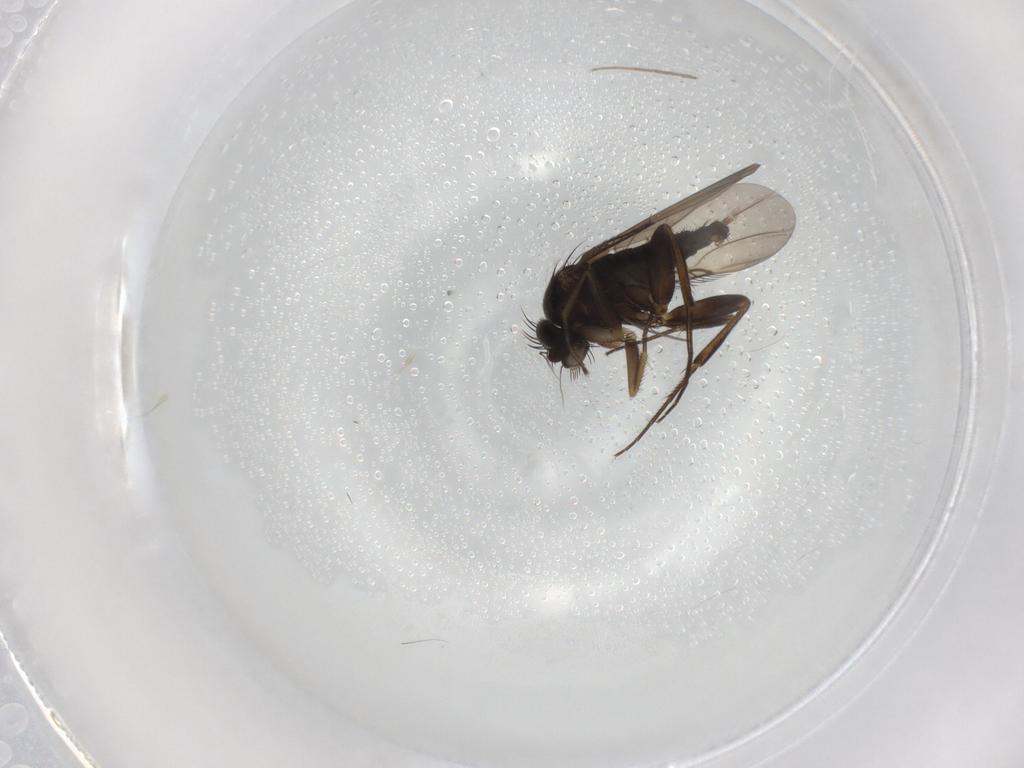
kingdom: Animalia
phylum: Arthropoda
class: Insecta
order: Diptera
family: Phoridae
